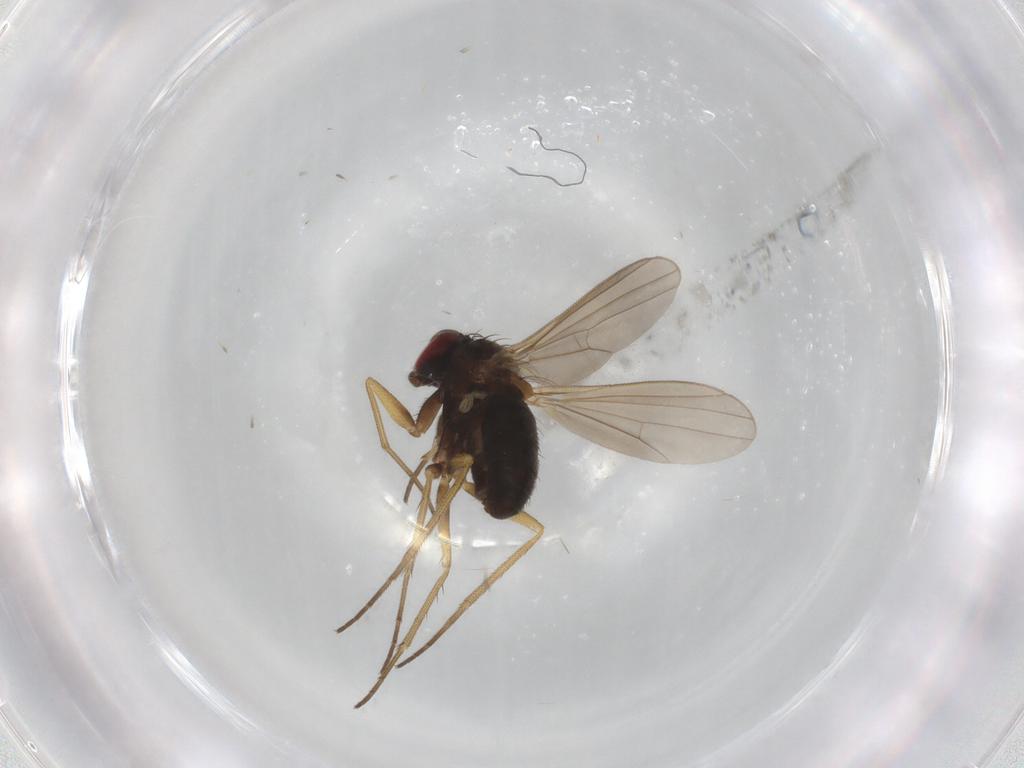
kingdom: Animalia
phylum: Arthropoda
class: Insecta
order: Diptera
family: Dolichopodidae
